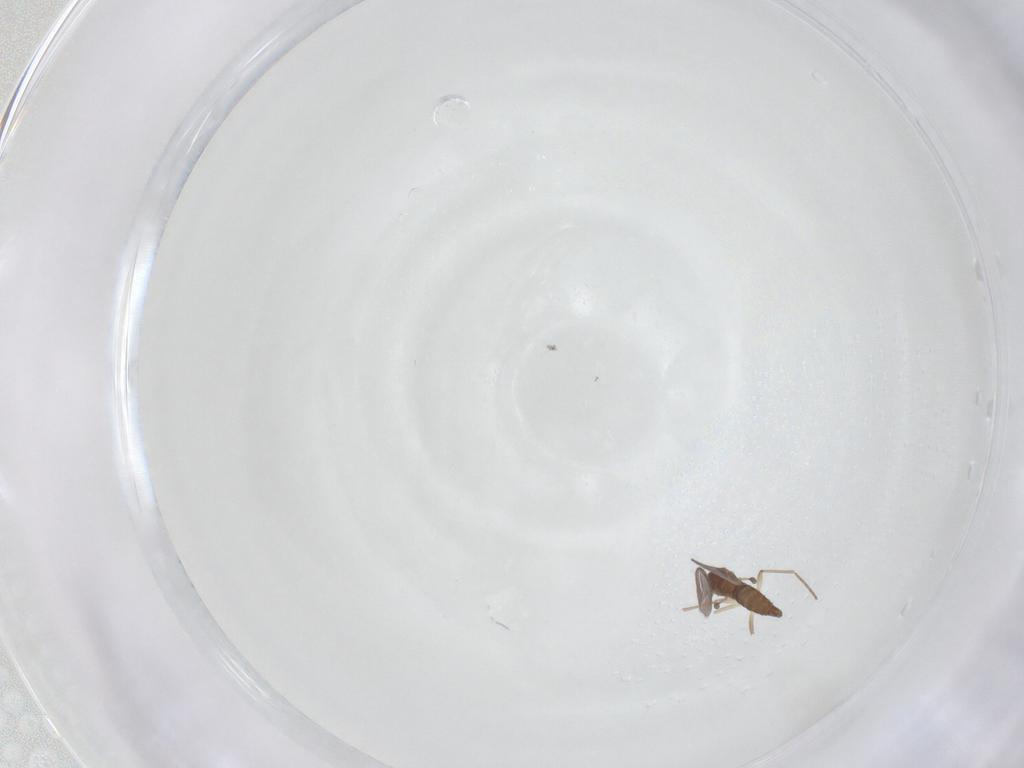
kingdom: Animalia
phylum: Arthropoda
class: Insecta
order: Diptera
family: Sciaridae
